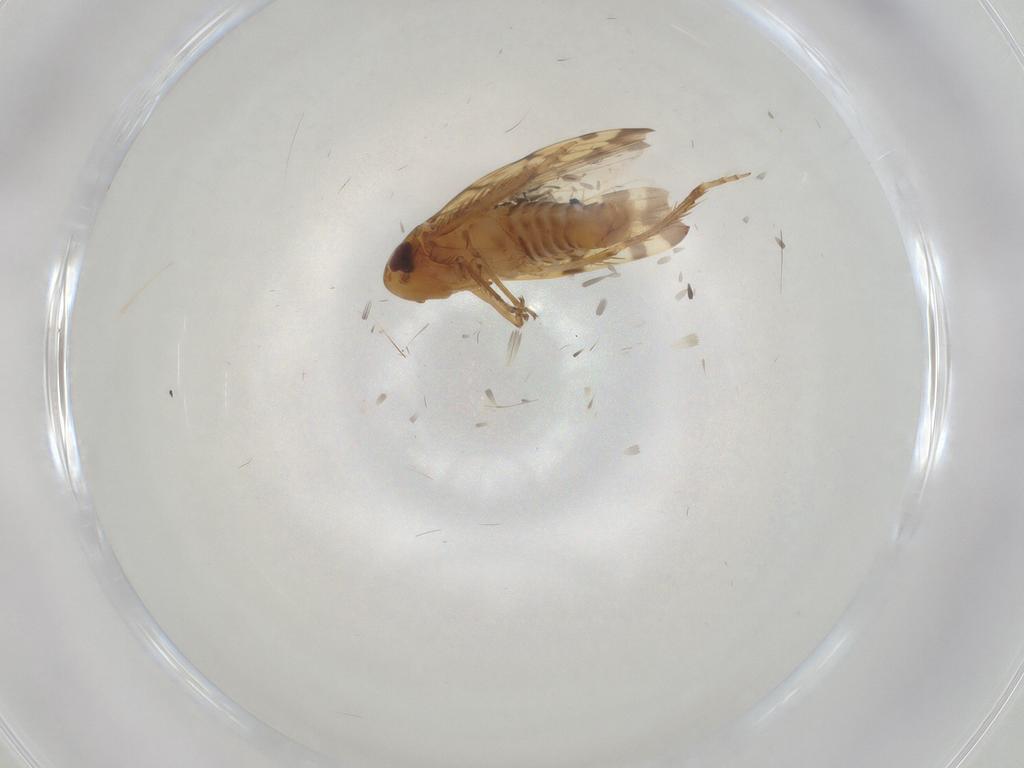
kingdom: Animalia
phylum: Arthropoda
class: Insecta
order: Hemiptera
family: Cicadellidae
